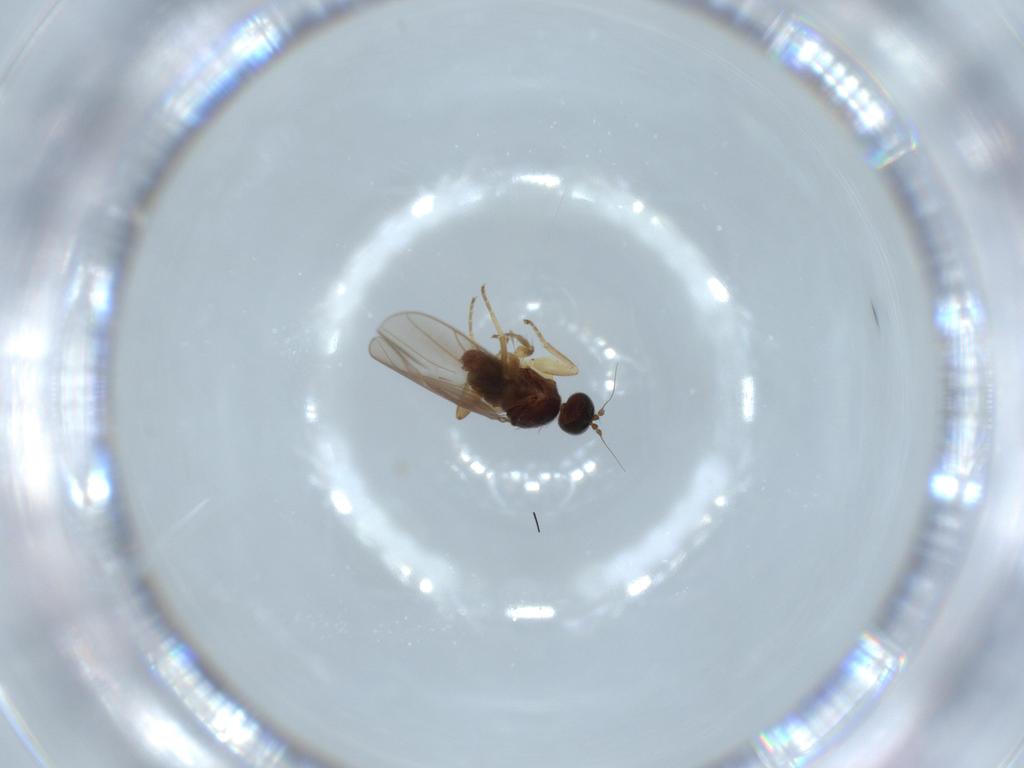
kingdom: Animalia
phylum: Arthropoda
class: Insecta
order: Diptera
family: Hybotidae
